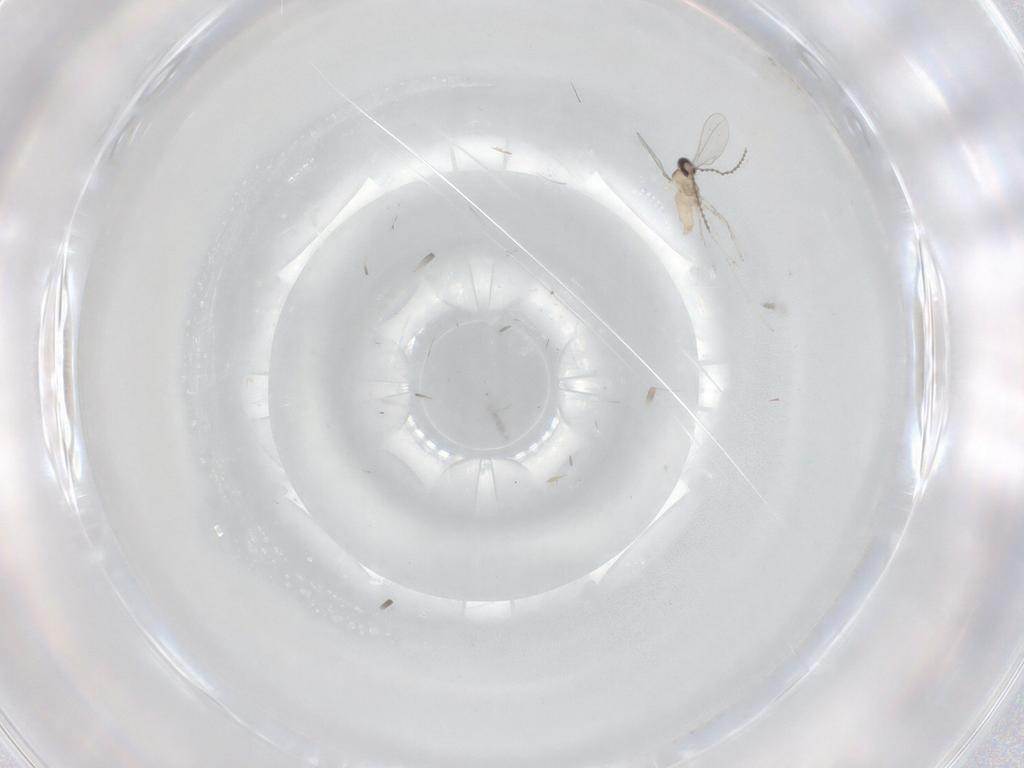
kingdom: Animalia
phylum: Arthropoda
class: Insecta
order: Diptera
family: Cecidomyiidae
